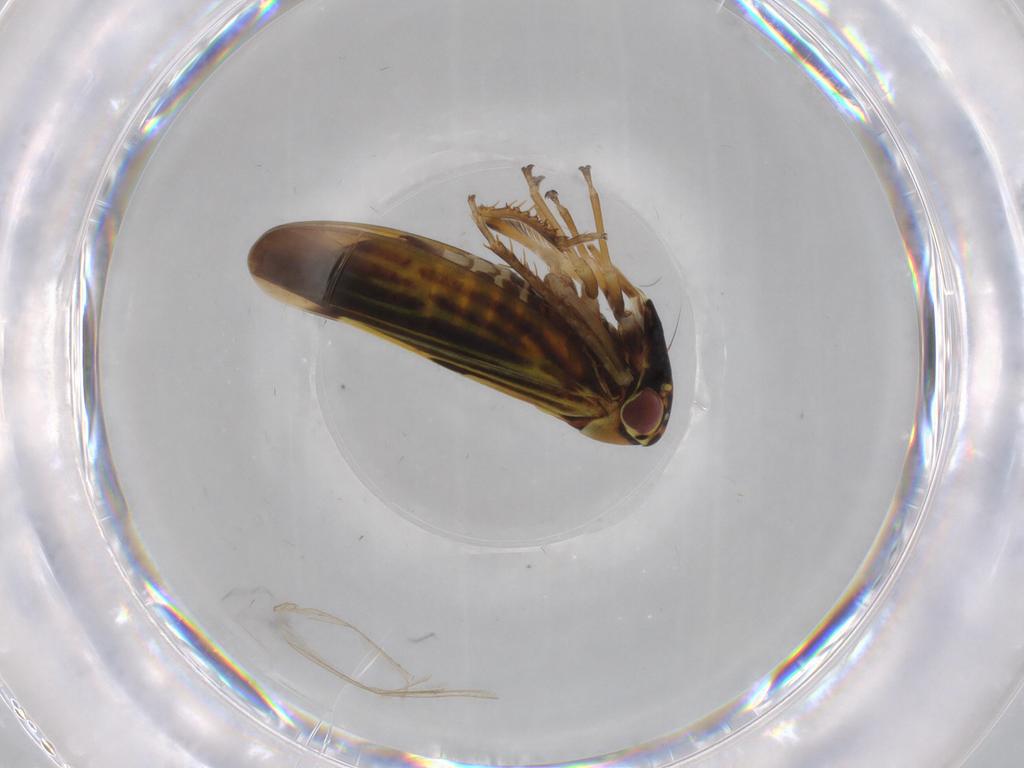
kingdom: Animalia
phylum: Arthropoda
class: Insecta
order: Hemiptera
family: Cicadellidae
